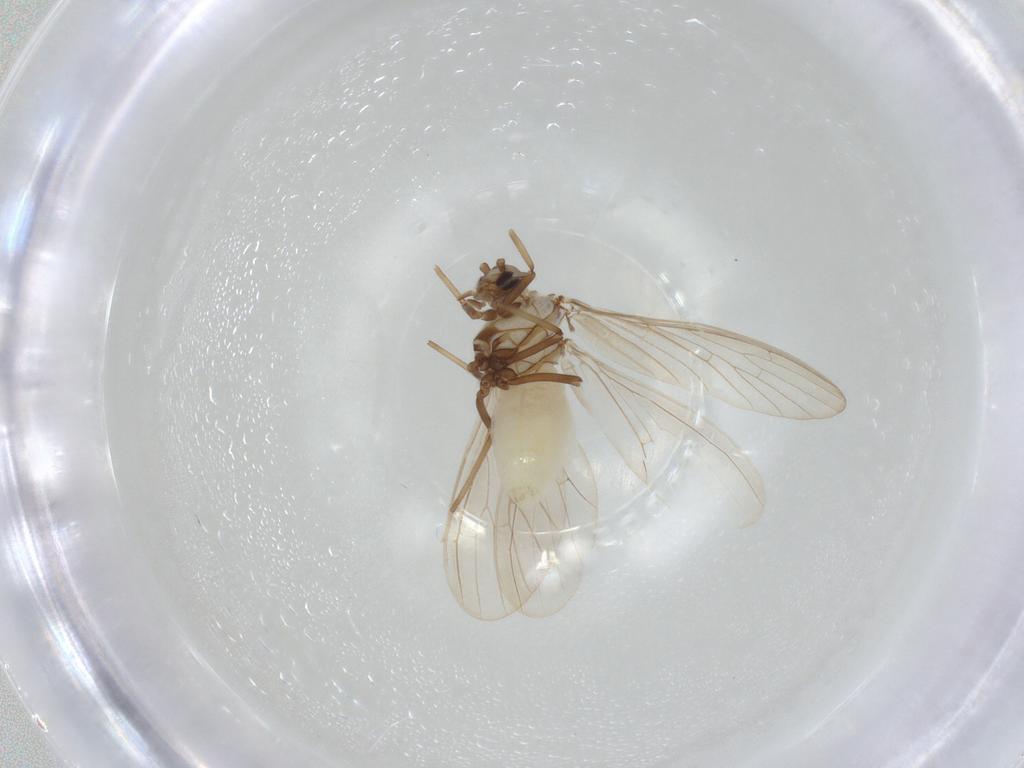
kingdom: Animalia
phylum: Arthropoda
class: Insecta
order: Neuroptera
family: Coniopterygidae
